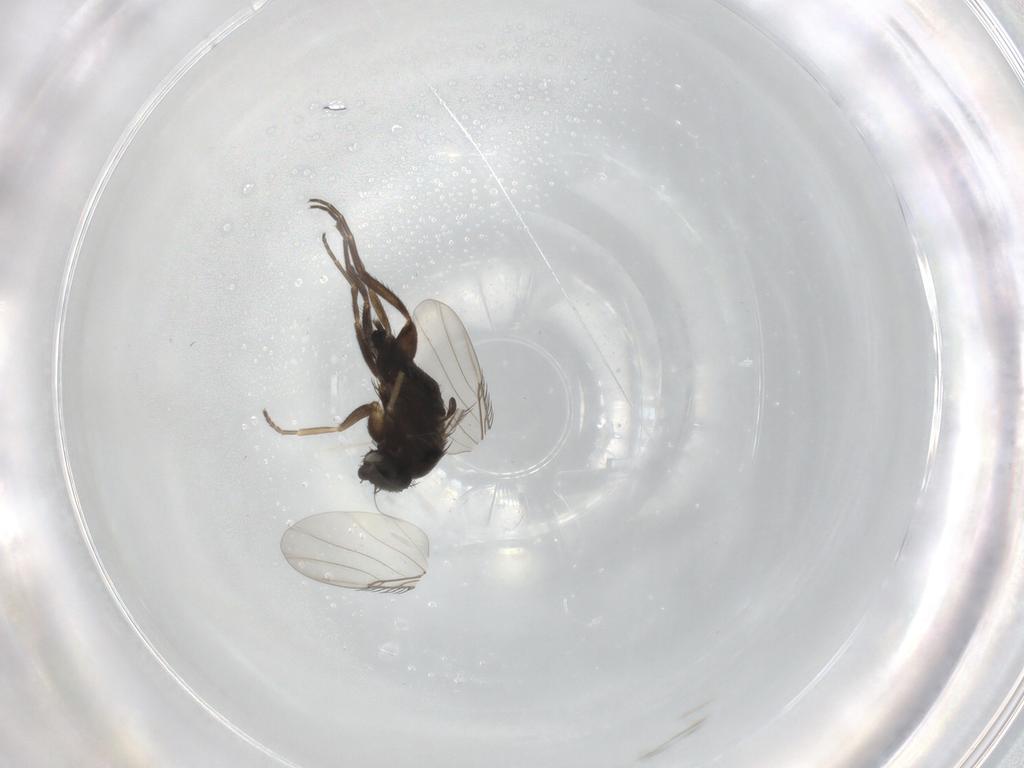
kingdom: Animalia
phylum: Arthropoda
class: Insecta
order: Diptera
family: Phoridae
